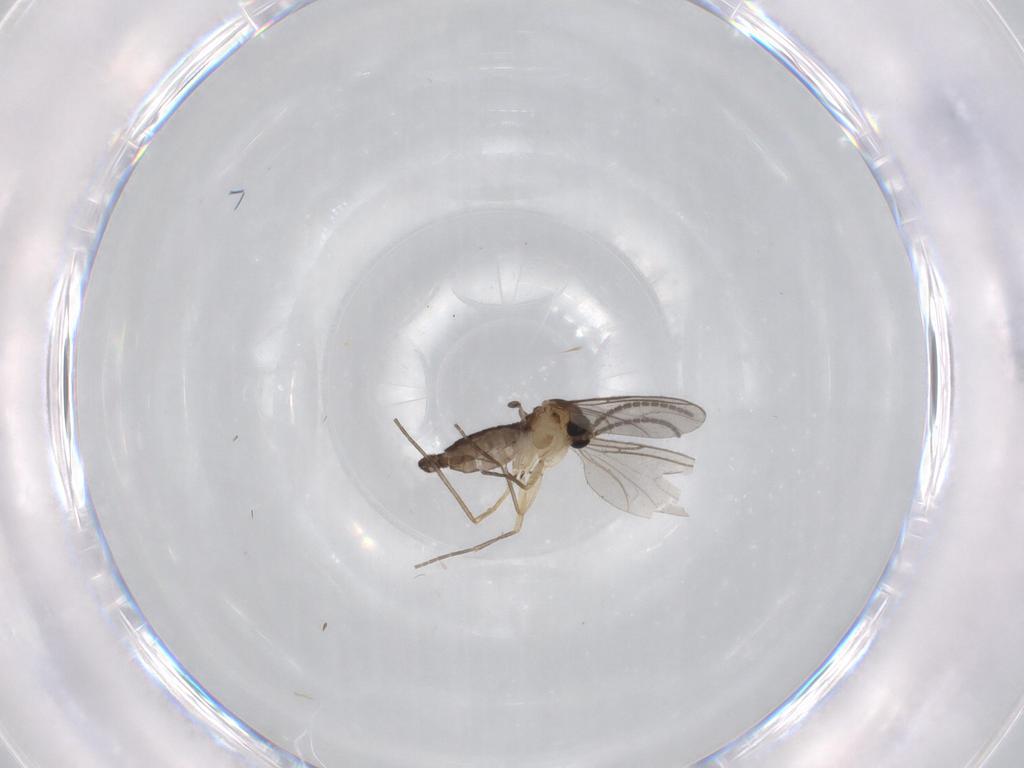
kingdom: Animalia
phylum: Arthropoda
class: Insecta
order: Diptera
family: Sciaridae
